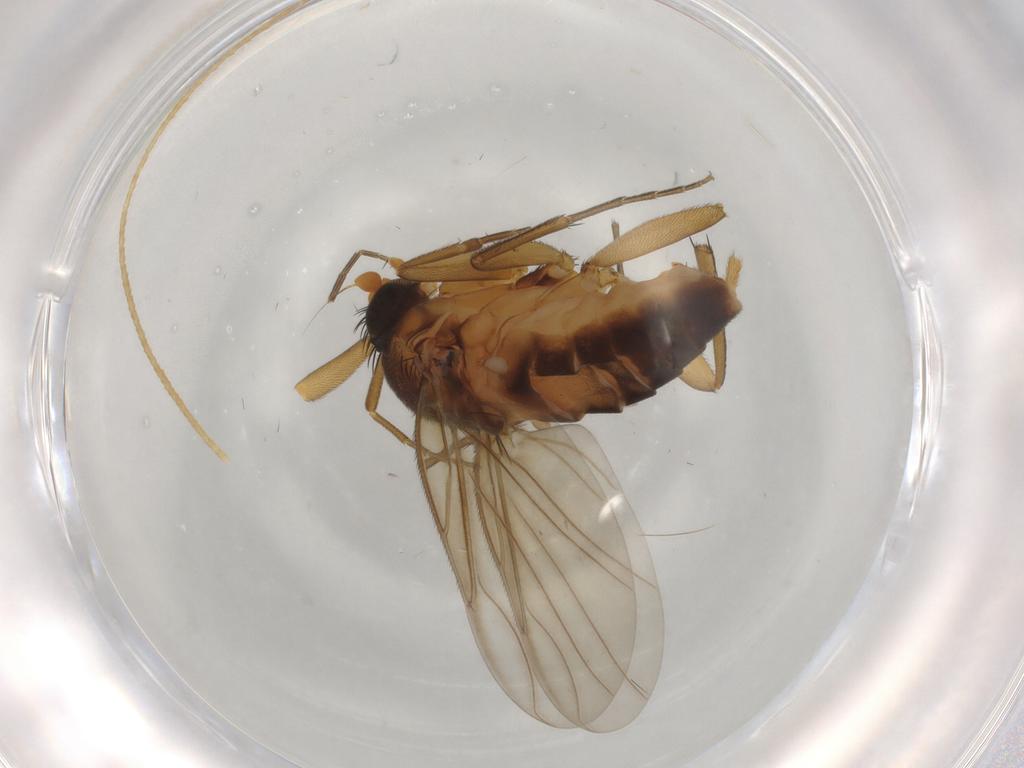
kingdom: Animalia
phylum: Arthropoda
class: Insecta
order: Diptera
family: Phoridae
